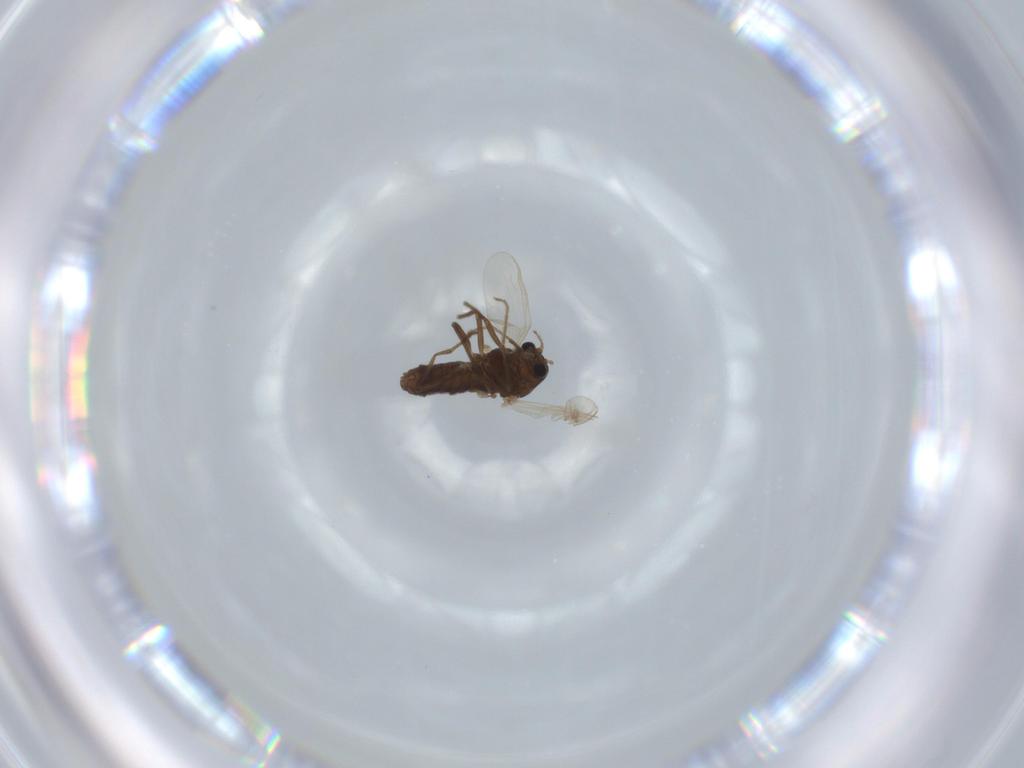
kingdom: Animalia
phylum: Arthropoda
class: Insecta
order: Diptera
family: Chironomidae
